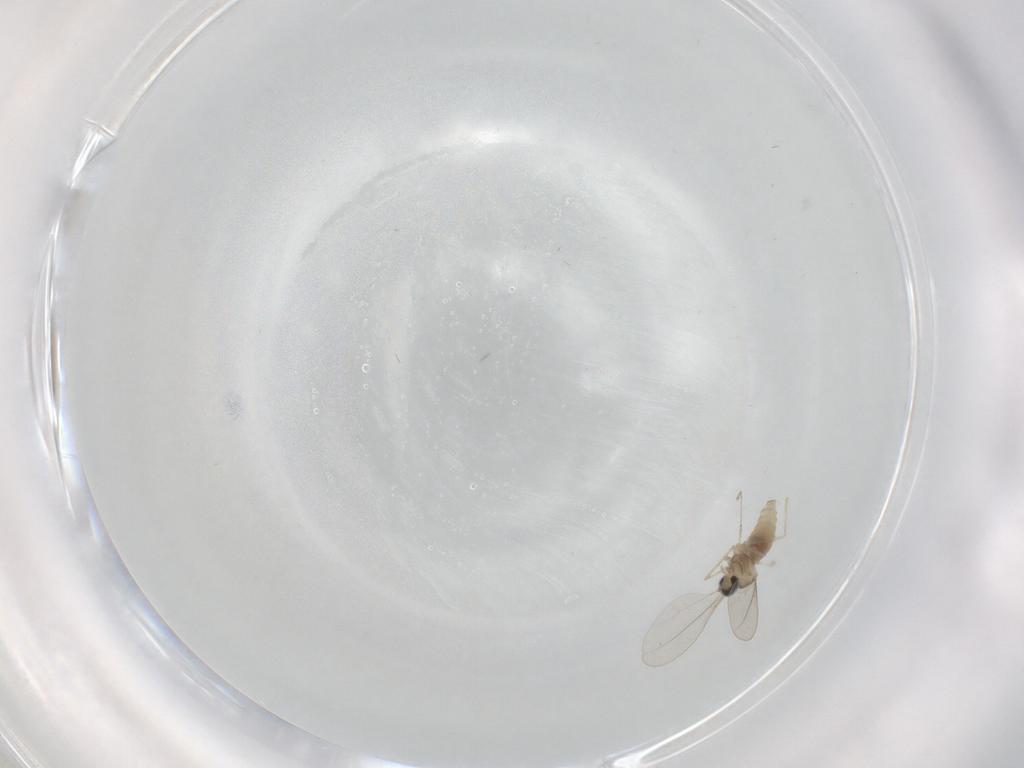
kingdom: Animalia
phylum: Arthropoda
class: Insecta
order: Diptera
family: Ceratopogonidae
